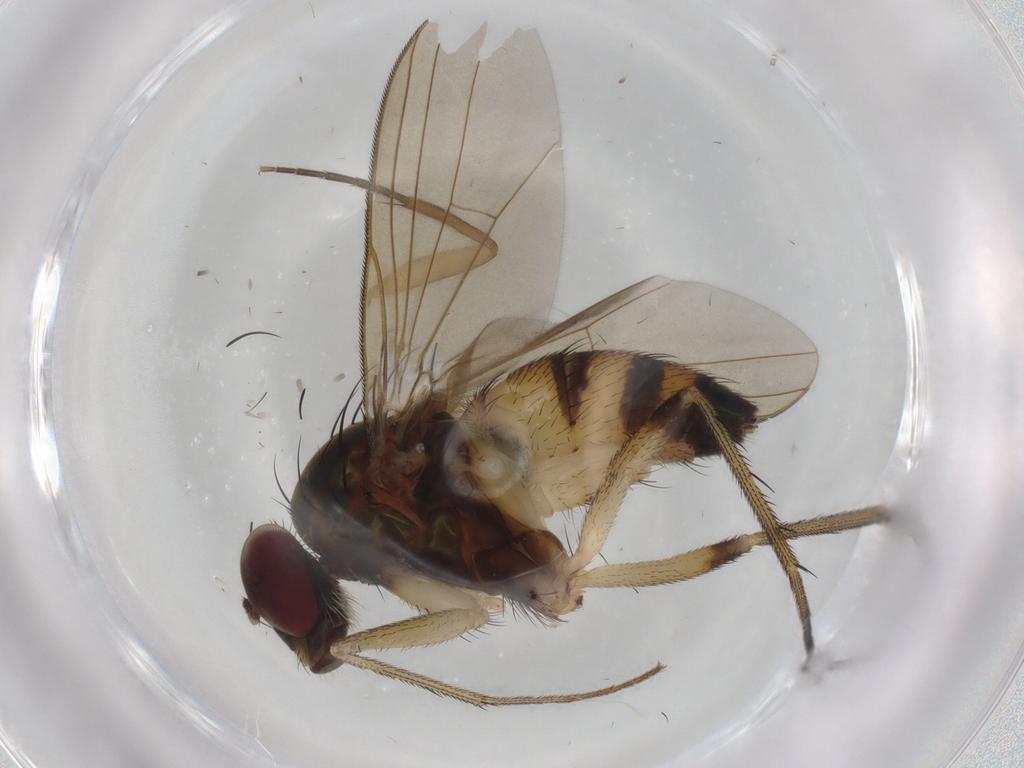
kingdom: Animalia
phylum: Arthropoda
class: Insecta
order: Diptera
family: Dolichopodidae
